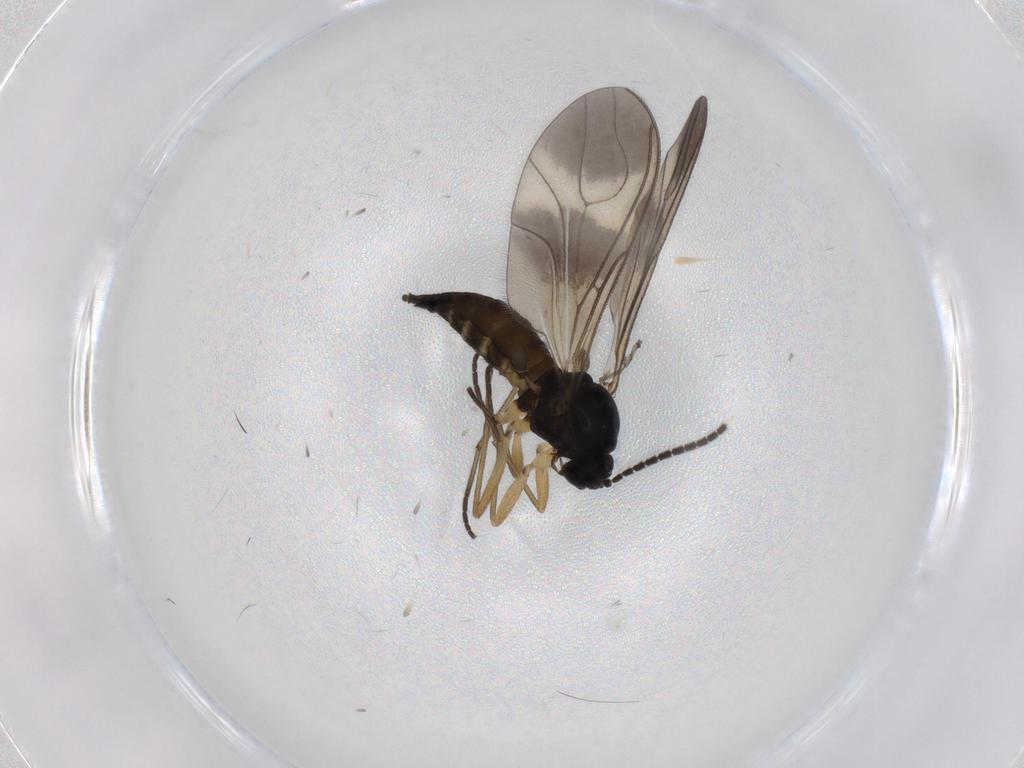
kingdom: Animalia
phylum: Arthropoda
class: Insecta
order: Diptera
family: Sciaridae
